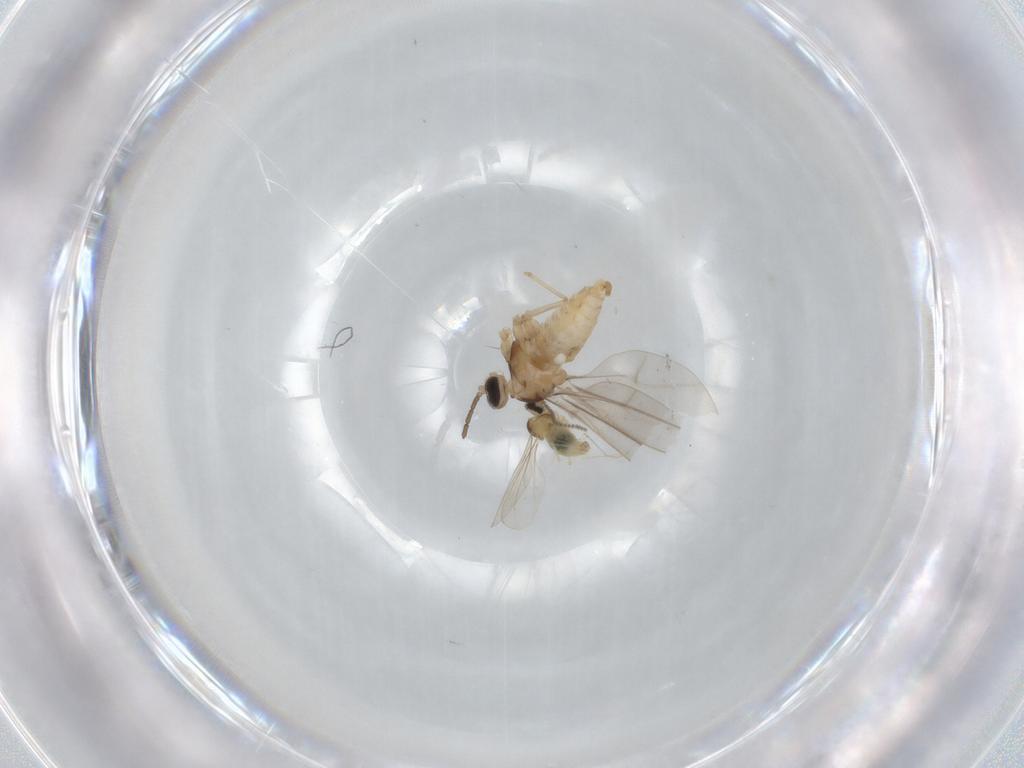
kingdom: Animalia
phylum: Arthropoda
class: Insecta
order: Diptera
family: Cecidomyiidae
